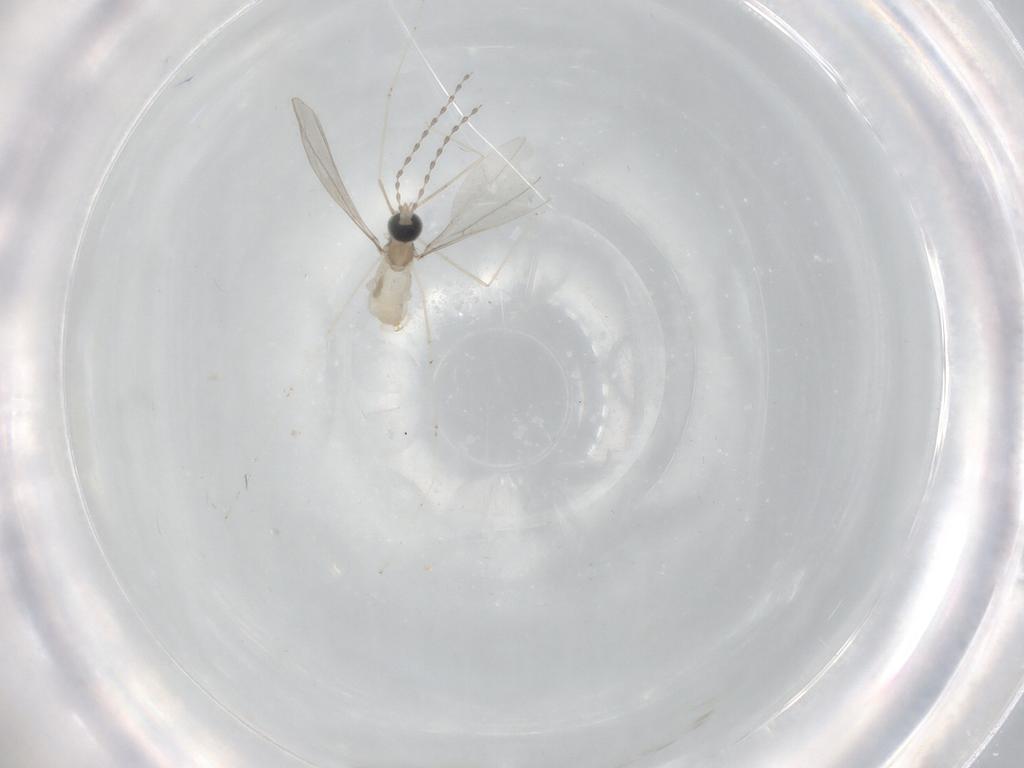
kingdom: Animalia
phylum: Arthropoda
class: Insecta
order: Diptera
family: Cecidomyiidae
